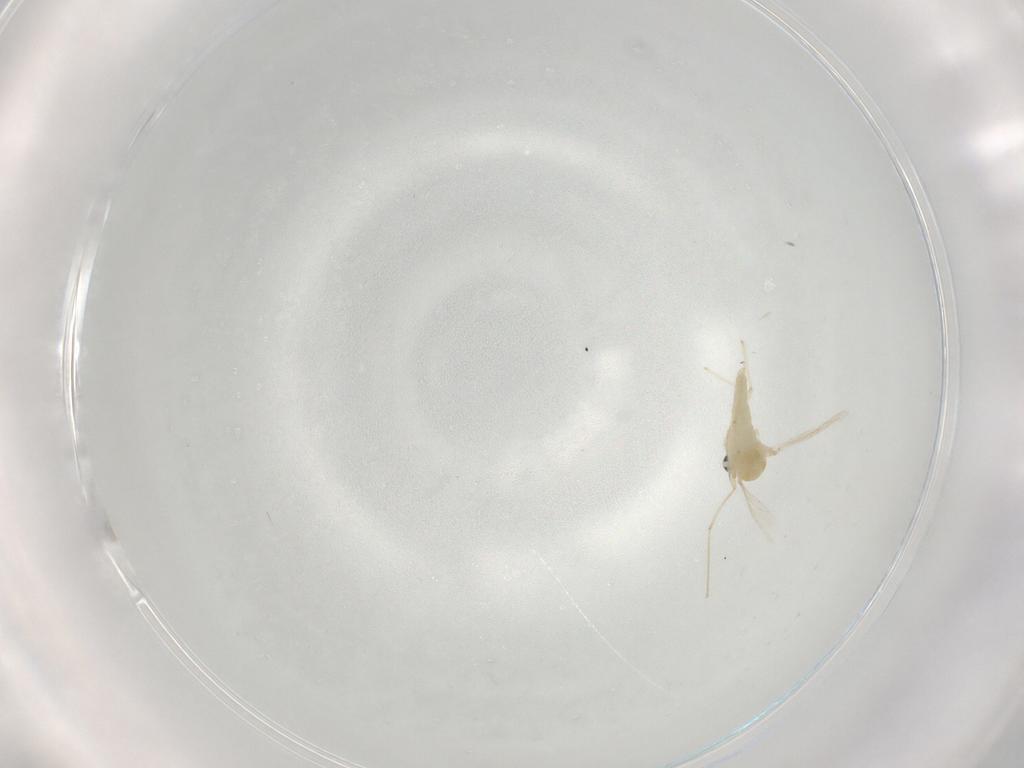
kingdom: Animalia
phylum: Arthropoda
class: Insecta
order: Diptera
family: Chironomidae
